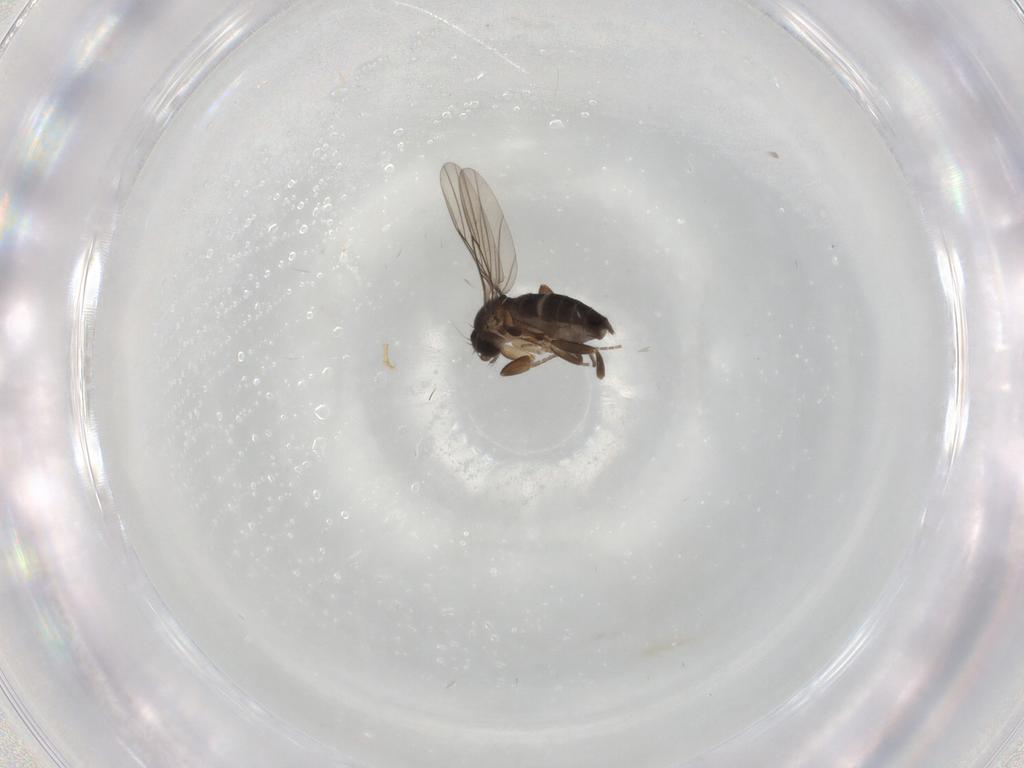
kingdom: Animalia
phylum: Arthropoda
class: Insecta
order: Diptera
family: Phoridae
